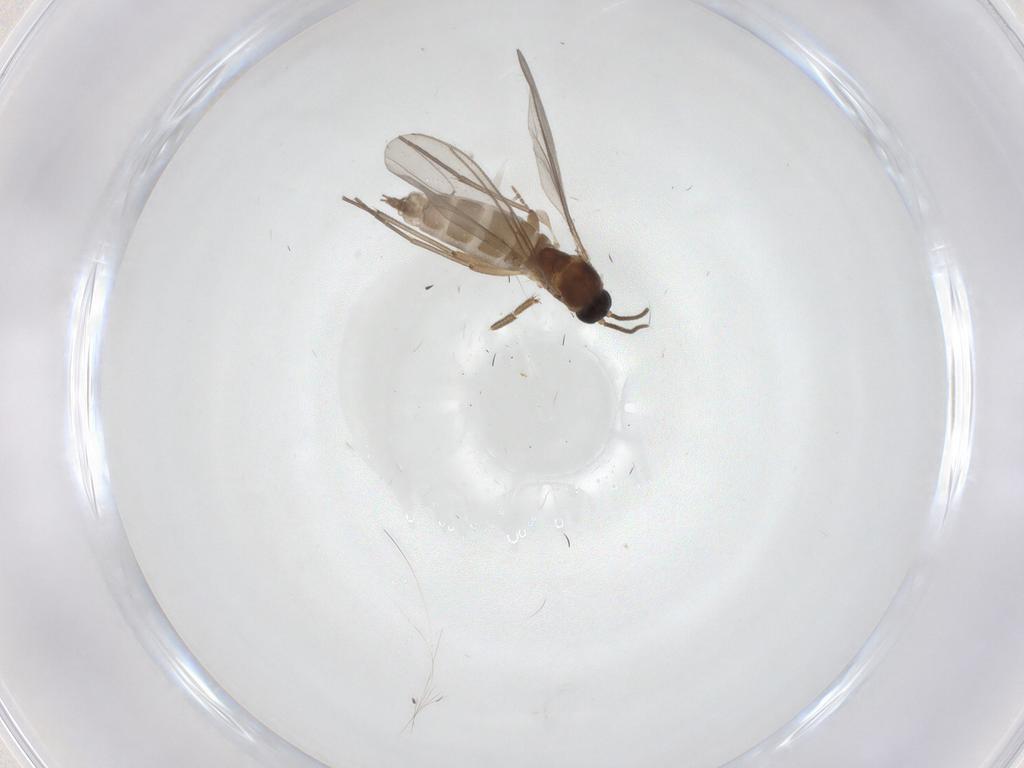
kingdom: Animalia
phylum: Arthropoda
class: Insecta
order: Diptera
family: Sciaridae
